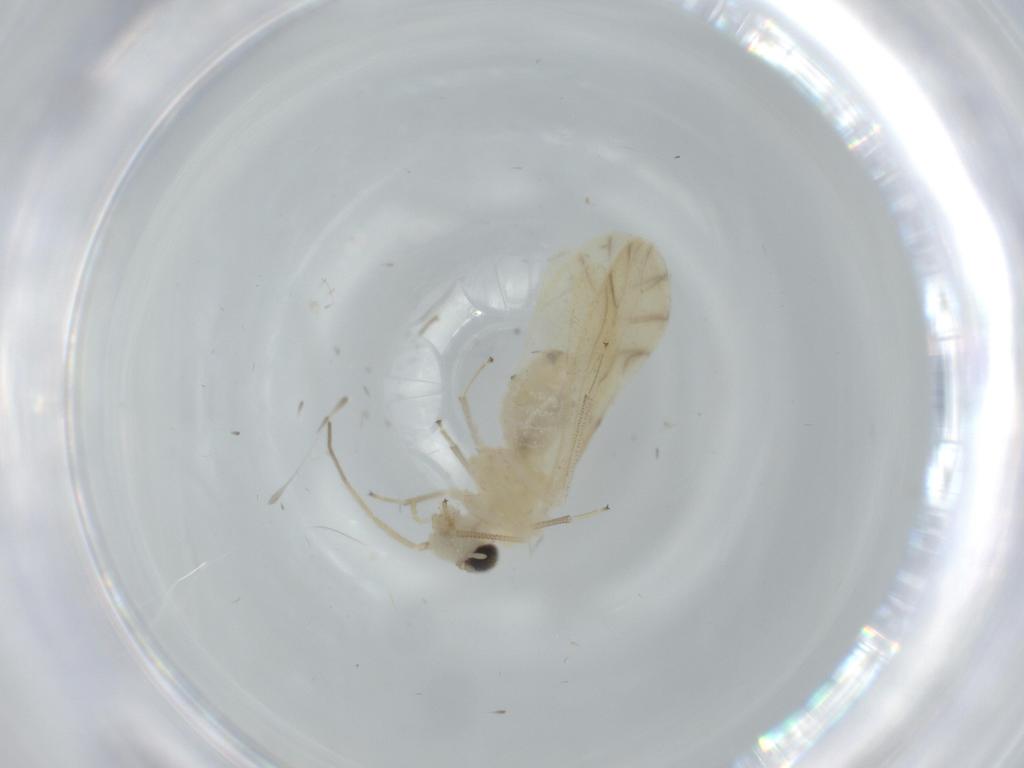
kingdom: Animalia
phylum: Arthropoda
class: Insecta
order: Psocodea
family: Caeciliusidae
